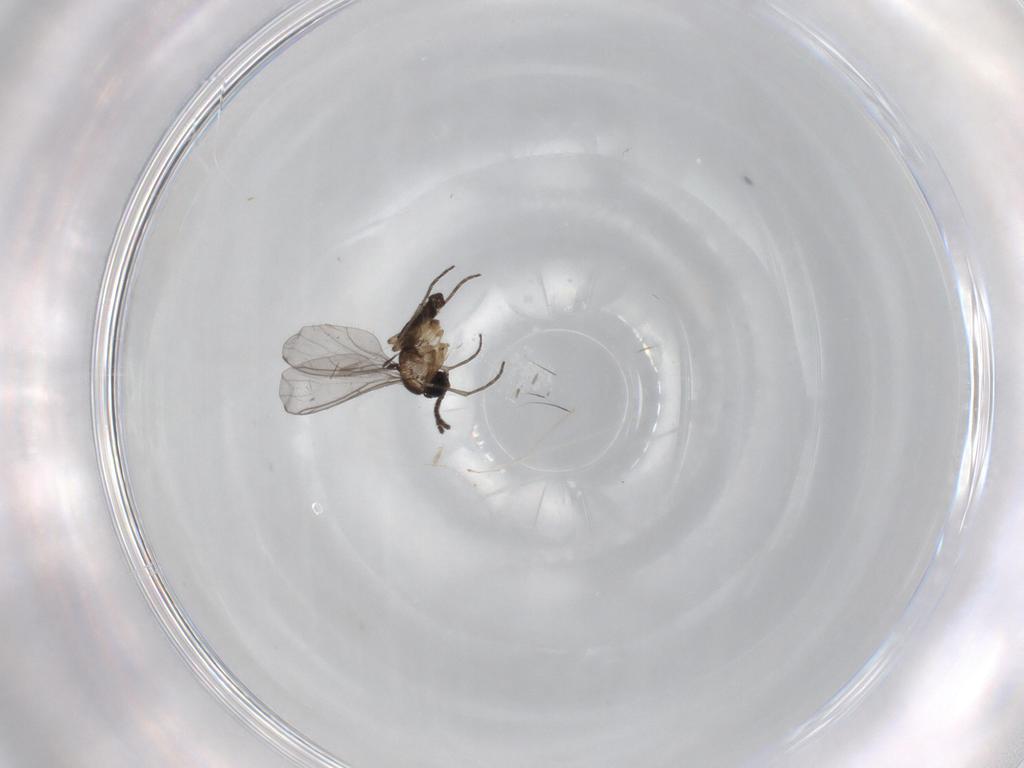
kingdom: Animalia
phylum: Arthropoda
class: Insecta
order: Diptera
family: Sciaridae
